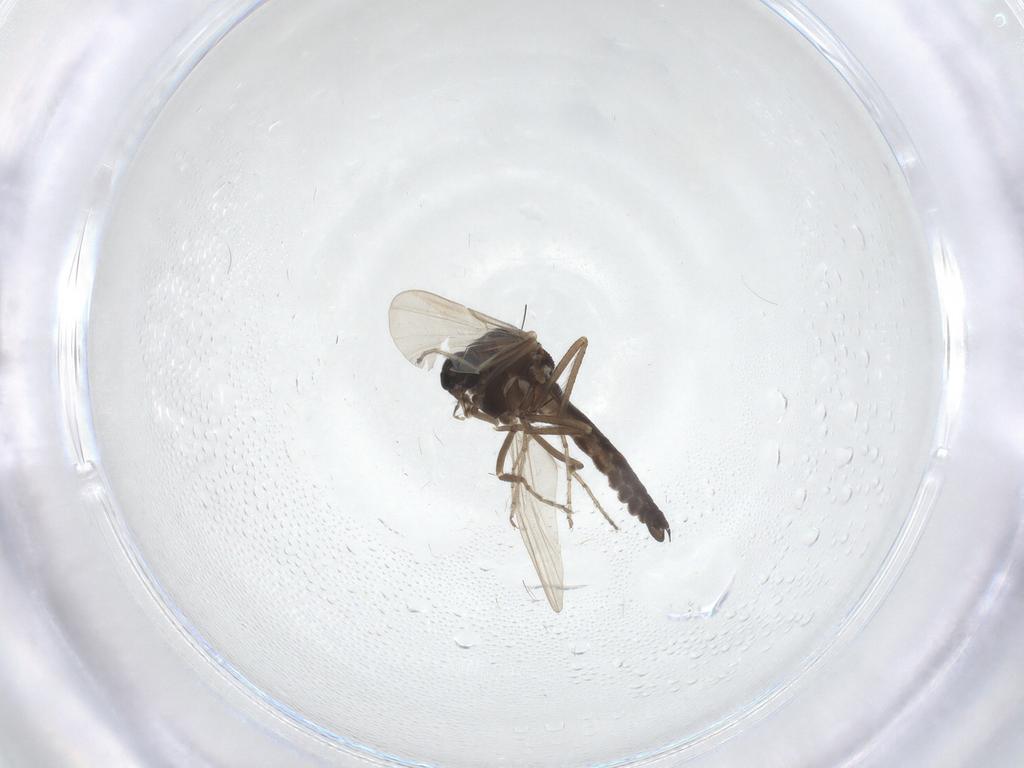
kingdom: Animalia
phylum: Arthropoda
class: Insecta
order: Diptera
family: Ceratopogonidae
